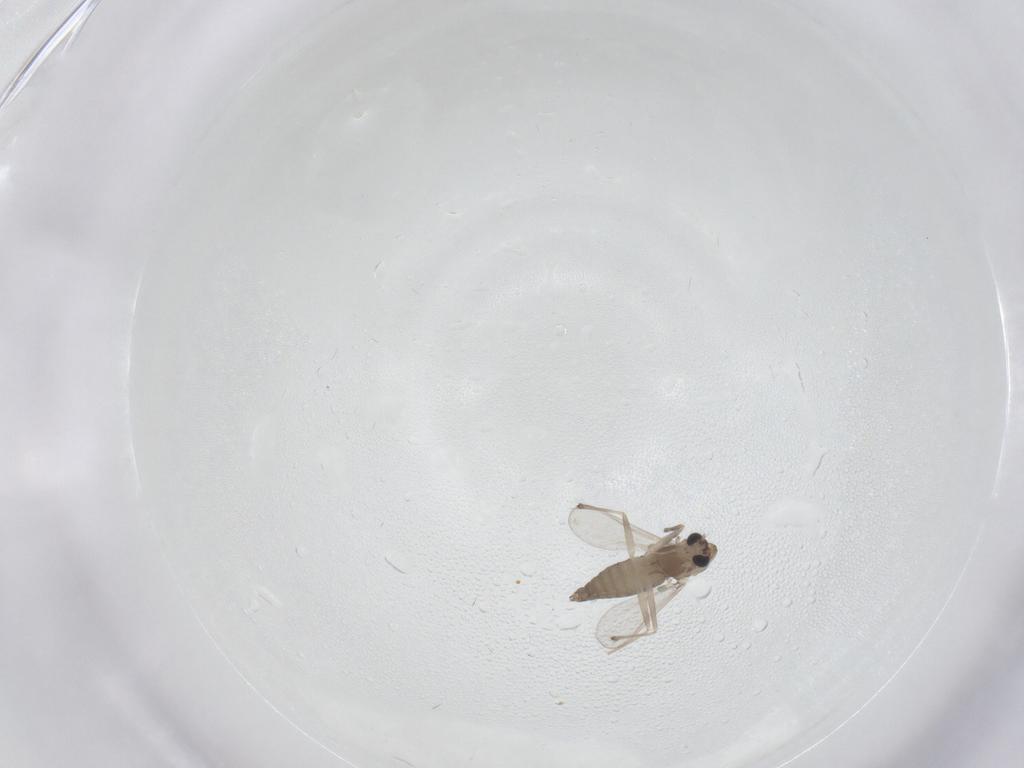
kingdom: Animalia
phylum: Arthropoda
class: Insecta
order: Diptera
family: Chironomidae
